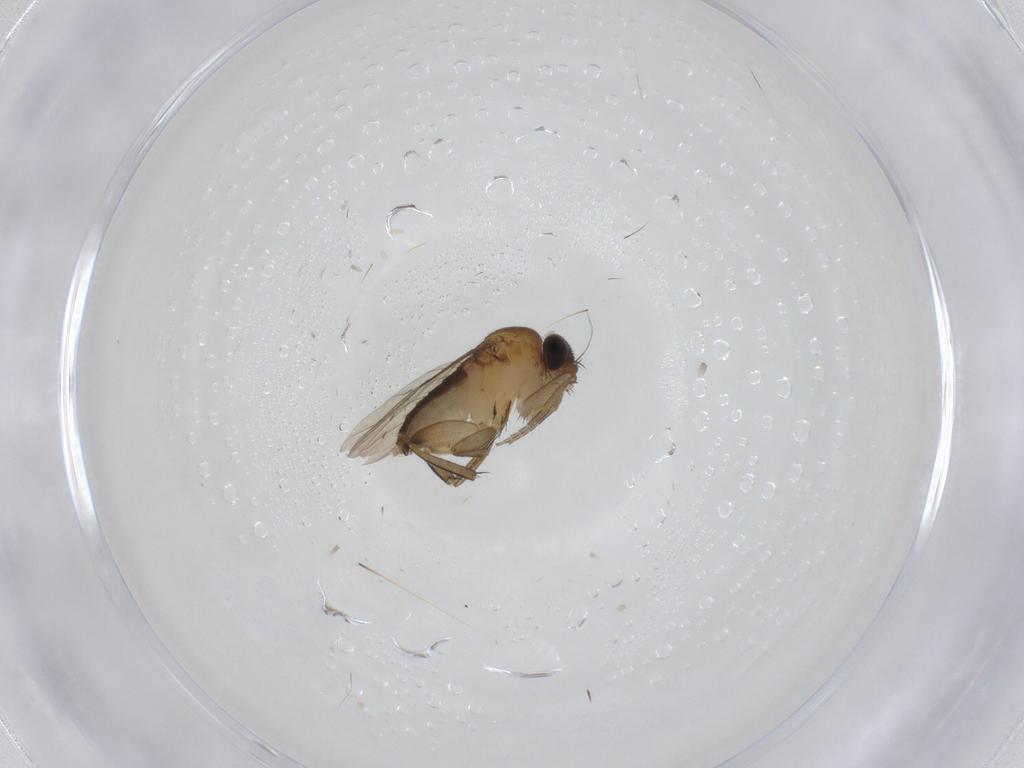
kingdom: Animalia
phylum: Arthropoda
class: Insecta
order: Diptera
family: Phoridae
